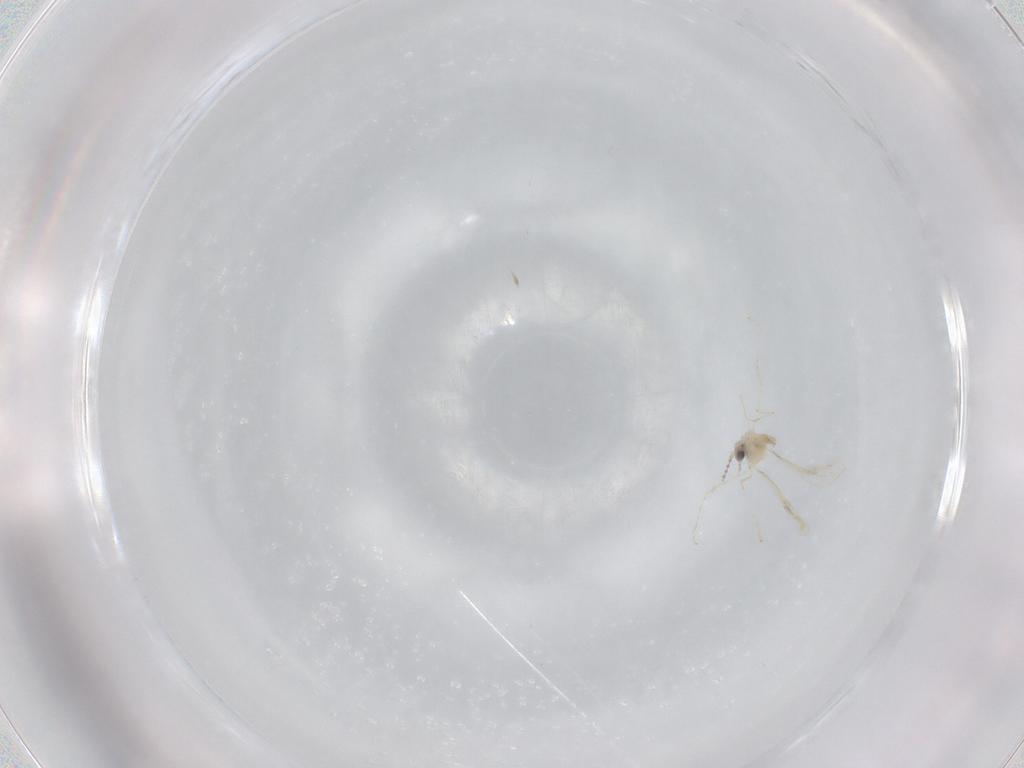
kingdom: Animalia
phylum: Arthropoda
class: Insecta
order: Diptera
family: Cecidomyiidae
